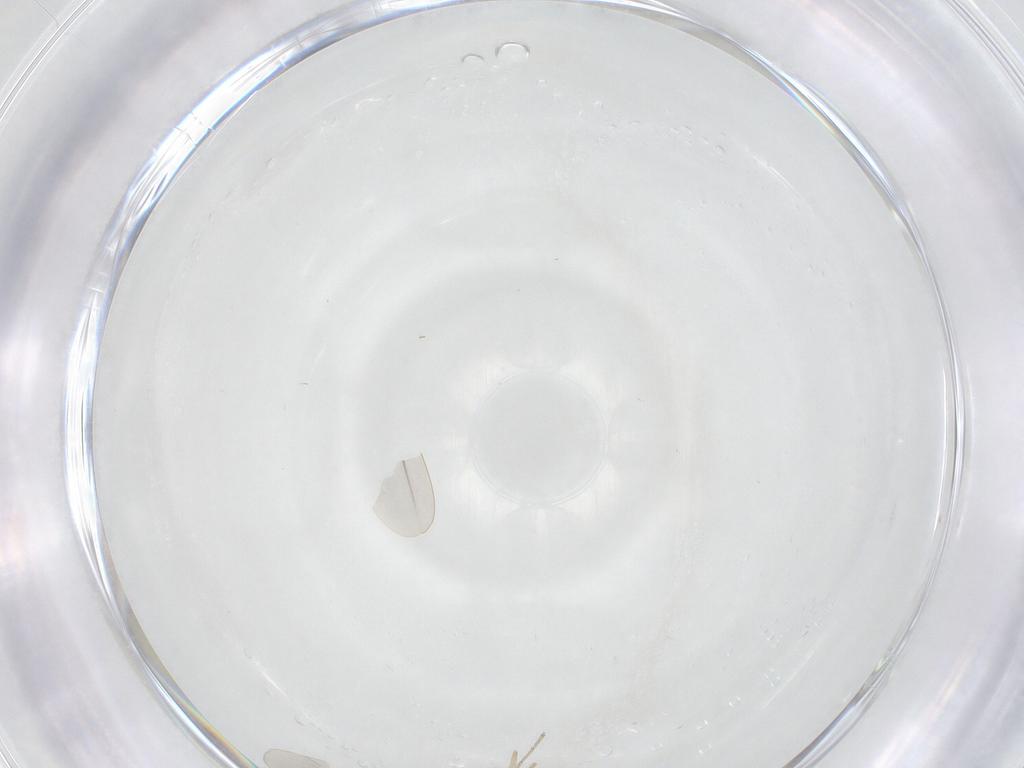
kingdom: Animalia
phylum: Arthropoda
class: Insecta
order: Diptera
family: Cecidomyiidae
